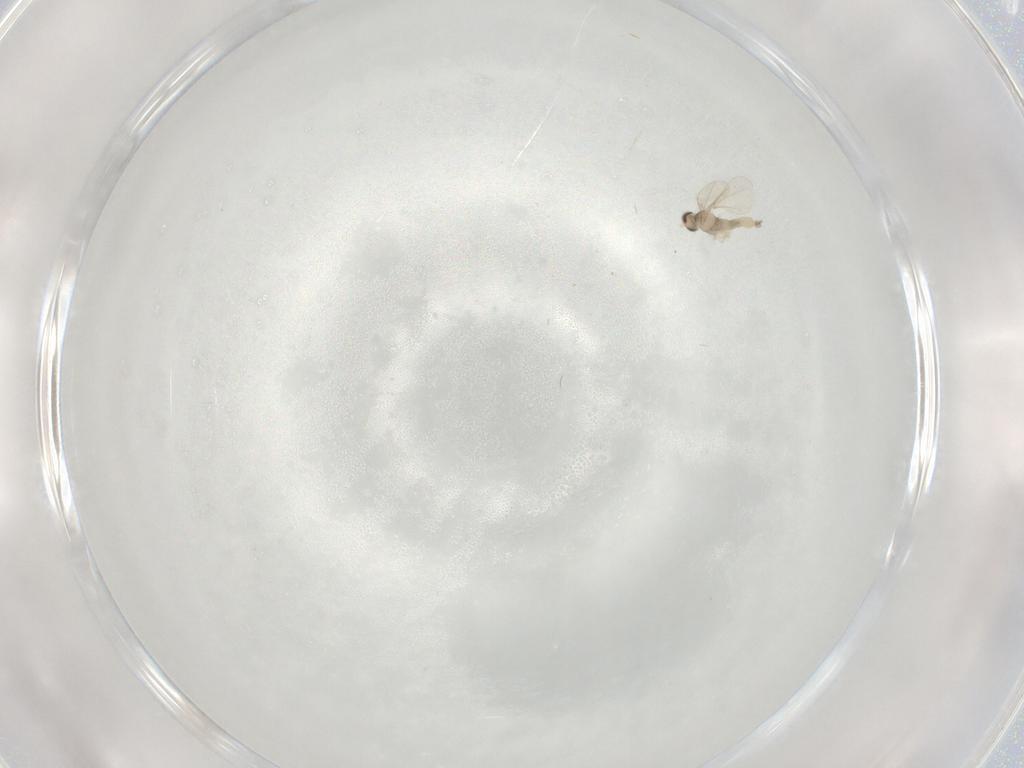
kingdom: Animalia
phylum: Arthropoda
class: Insecta
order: Diptera
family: Cecidomyiidae
